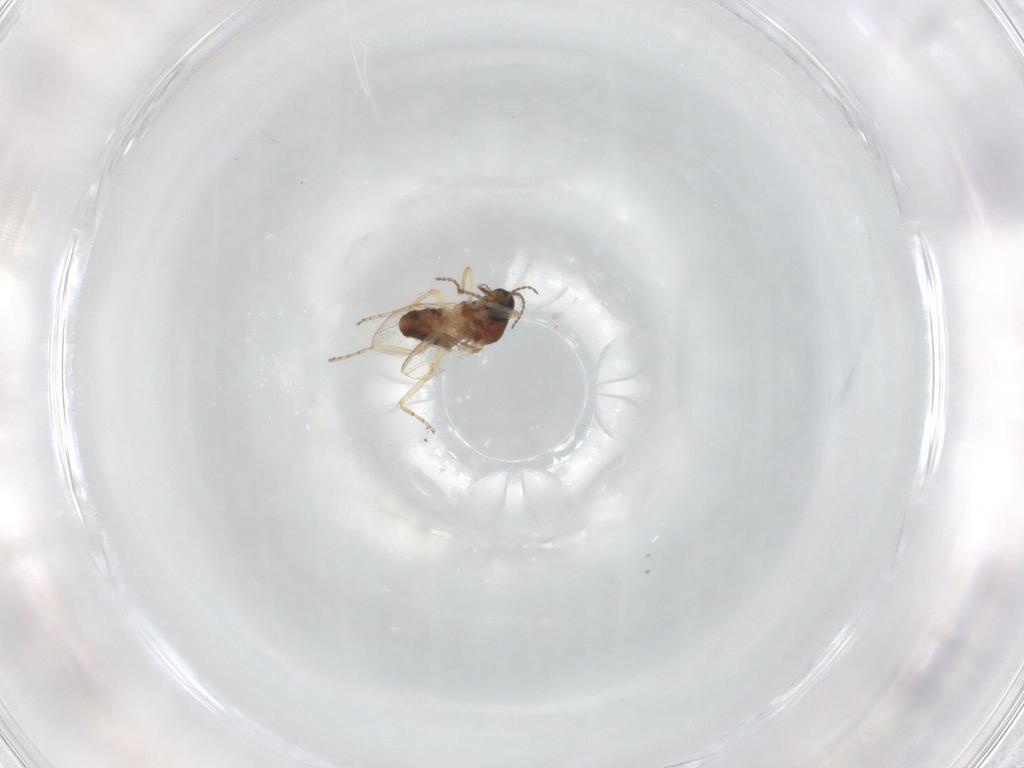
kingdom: Animalia
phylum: Arthropoda
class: Insecta
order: Diptera
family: Ceratopogonidae
